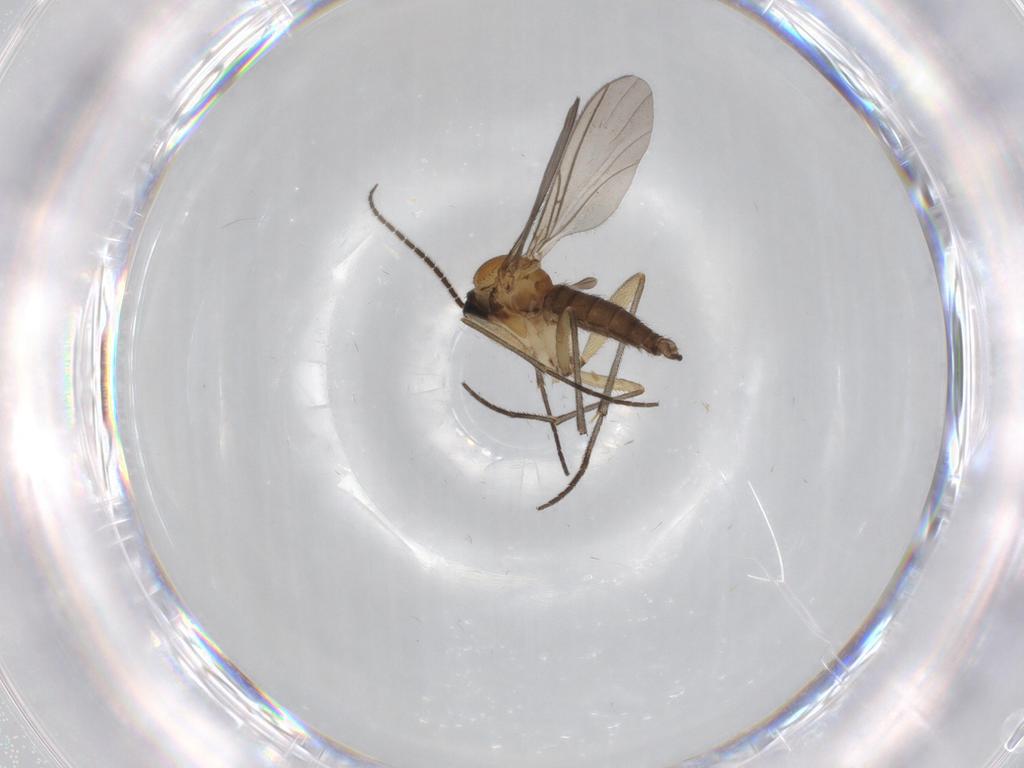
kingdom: Animalia
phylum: Arthropoda
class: Insecta
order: Diptera
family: Sciaridae
